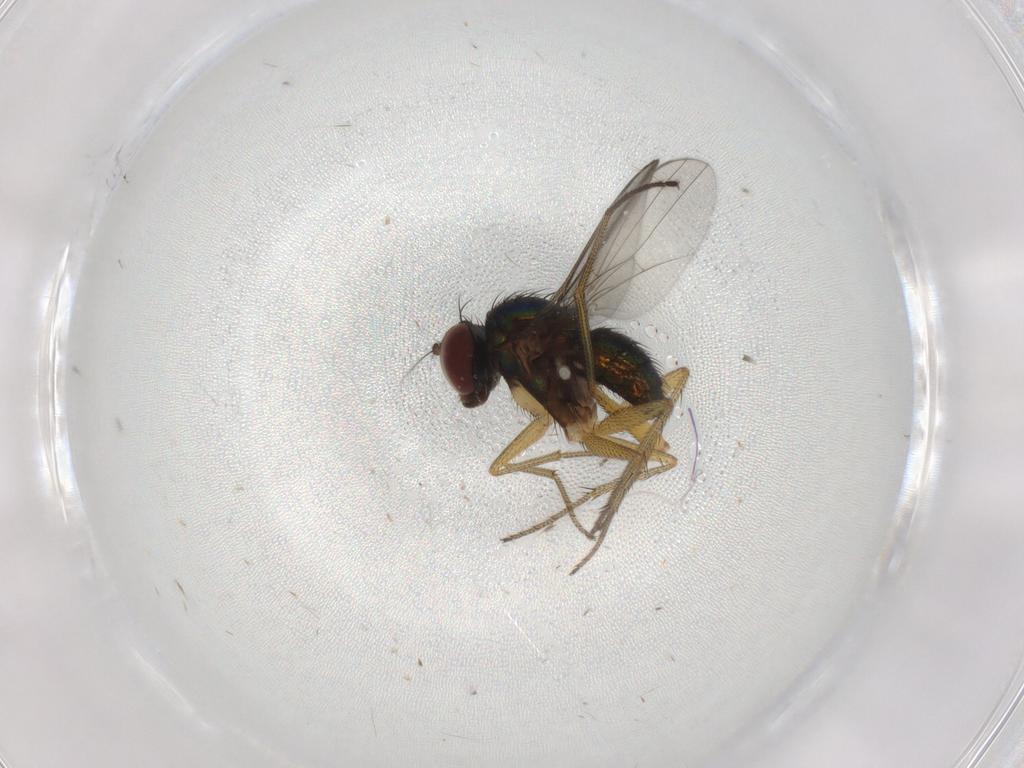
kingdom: Animalia
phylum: Arthropoda
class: Insecta
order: Diptera
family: Chironomidae
